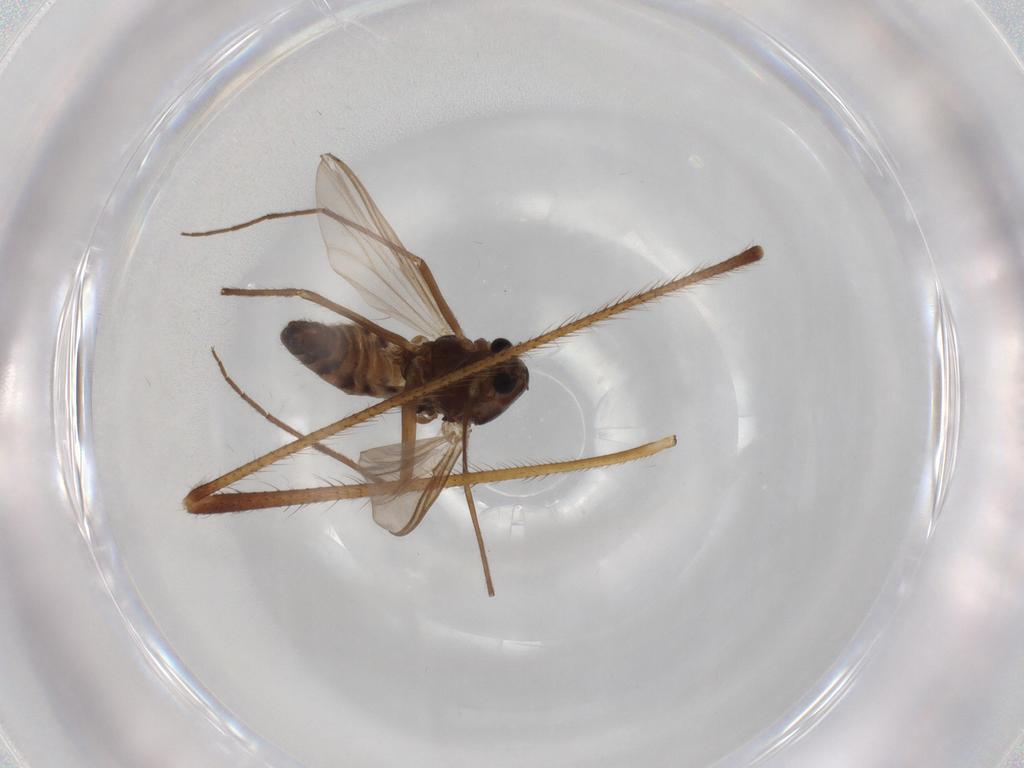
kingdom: Animalia
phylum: Arthropoda
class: Insecta
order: Diptera
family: Chironomidae
